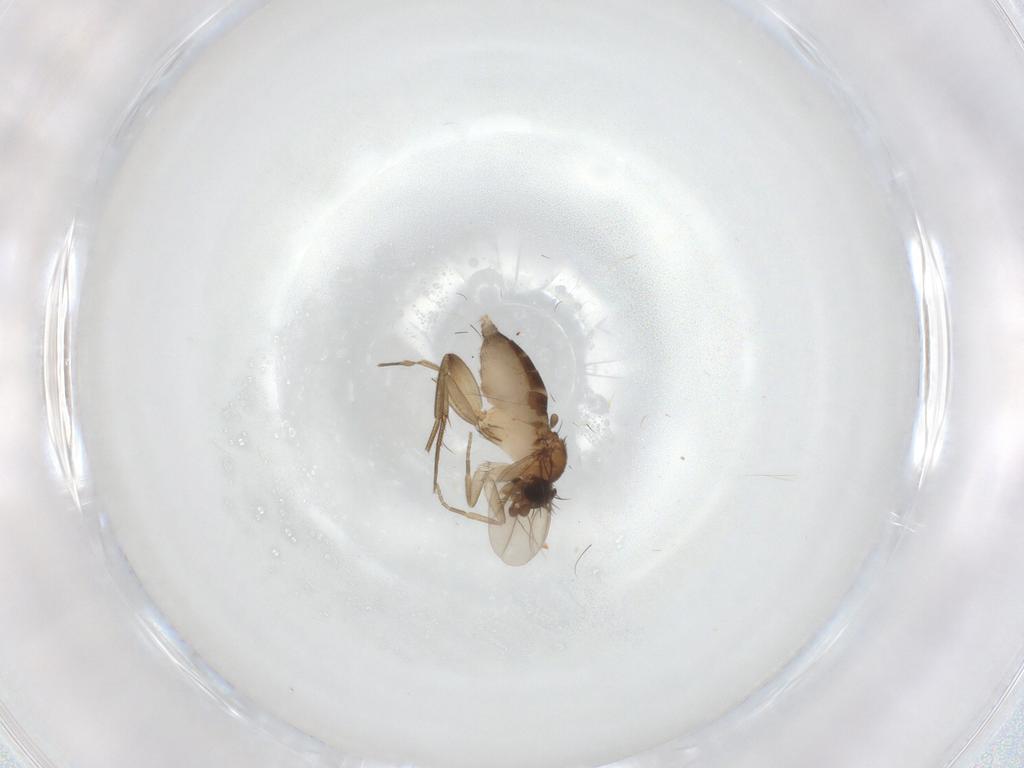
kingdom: Animalia
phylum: Arthropoda
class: Insecta
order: Diptera
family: Phoridae
